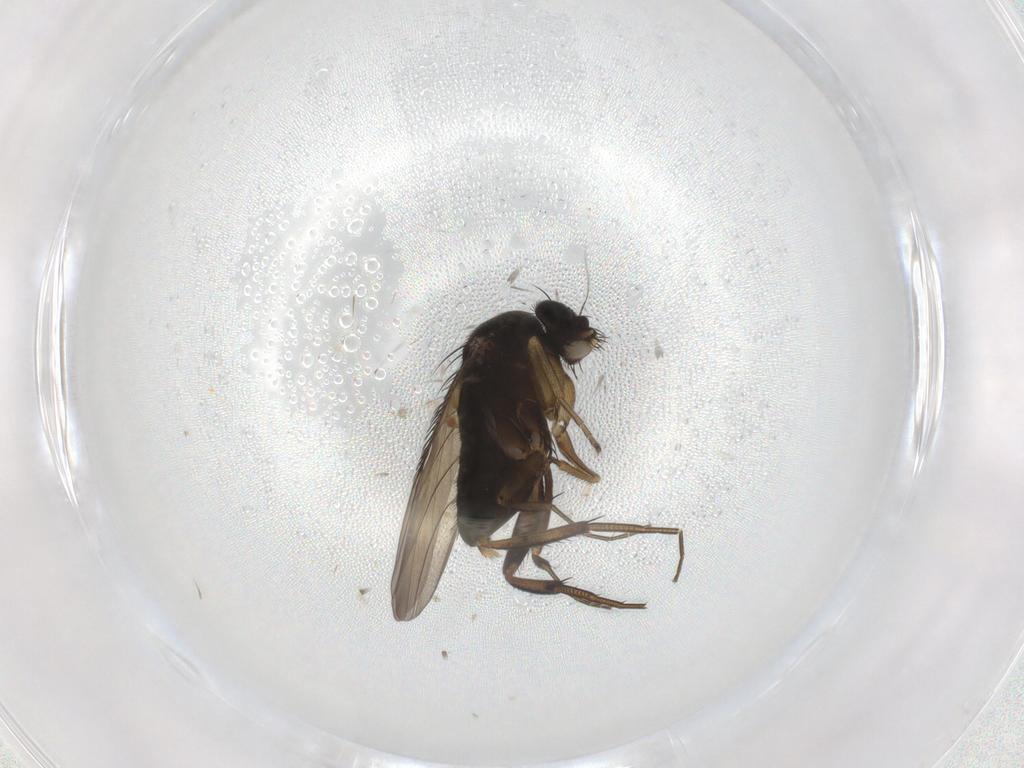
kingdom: Animalia
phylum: Arthropoda
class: Insecta
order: Diptera
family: Phoridae
